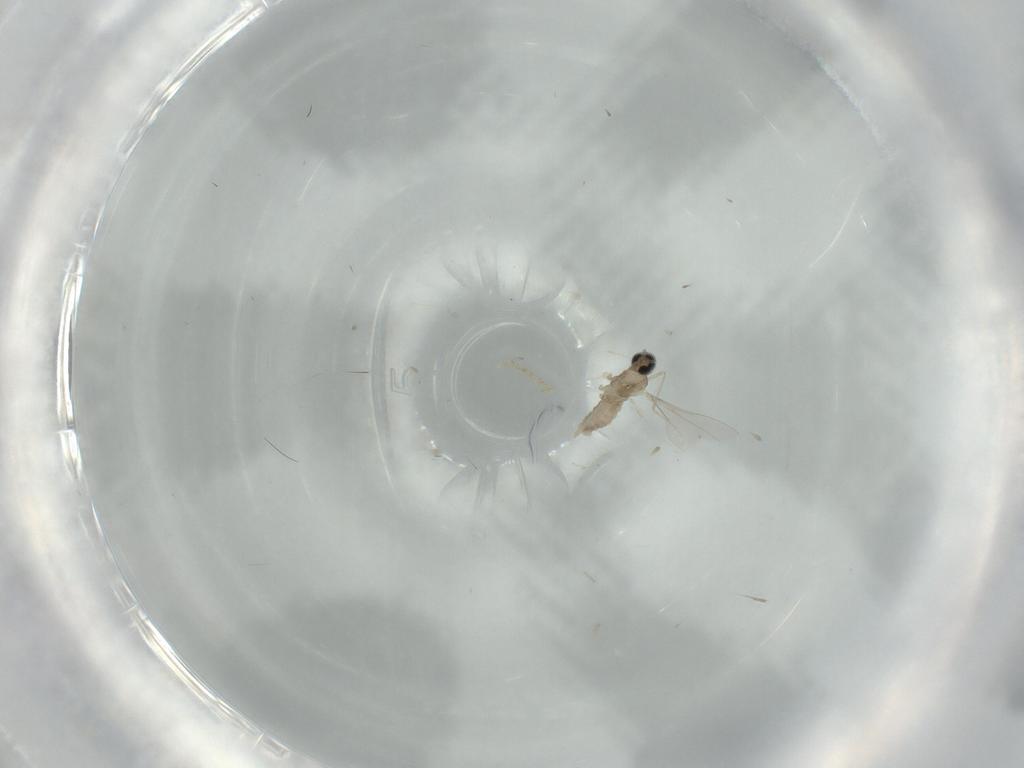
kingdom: Animalia
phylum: Arthropoda
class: Insecta
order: Diptera
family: Cecidomyiidae
